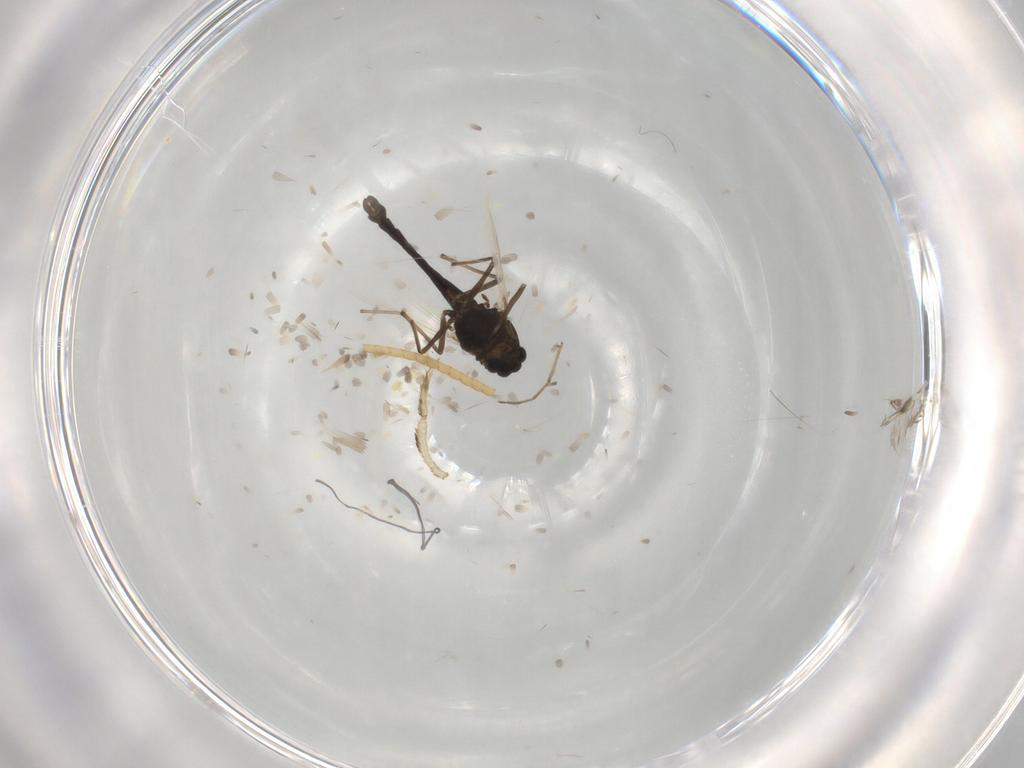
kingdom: Animalia
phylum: Arthropoda
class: Insecta
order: Diptera
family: Chironomidae
